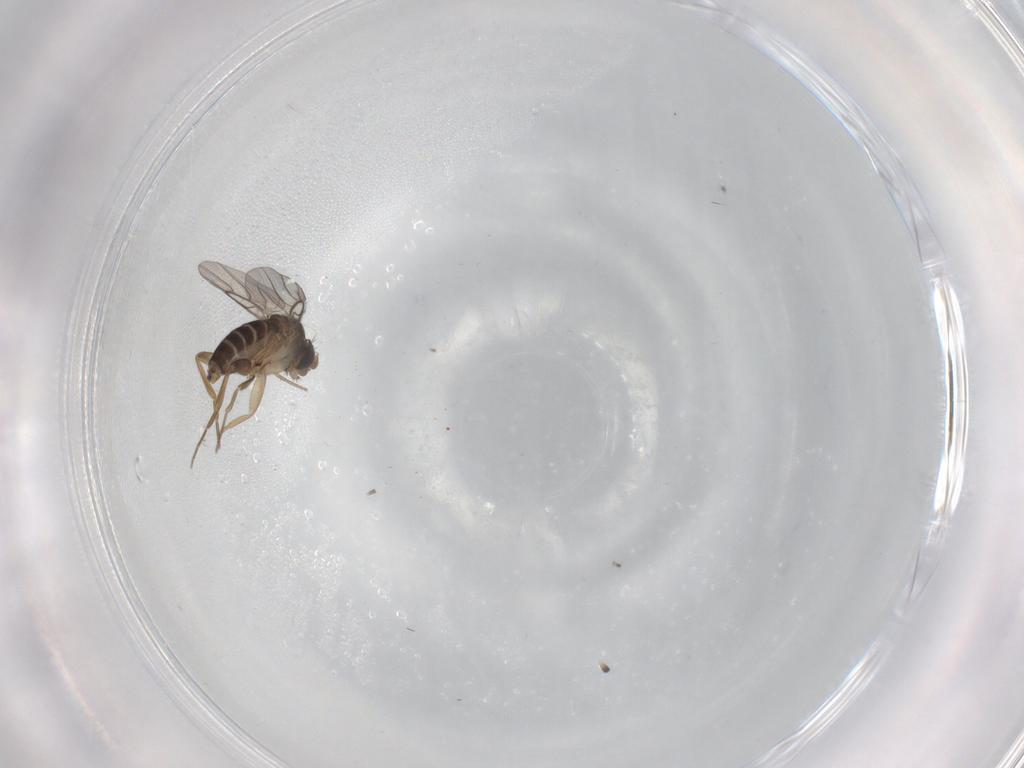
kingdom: Animalia
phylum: Arthropoda
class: Insecta
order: Diptera
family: Phoridae
